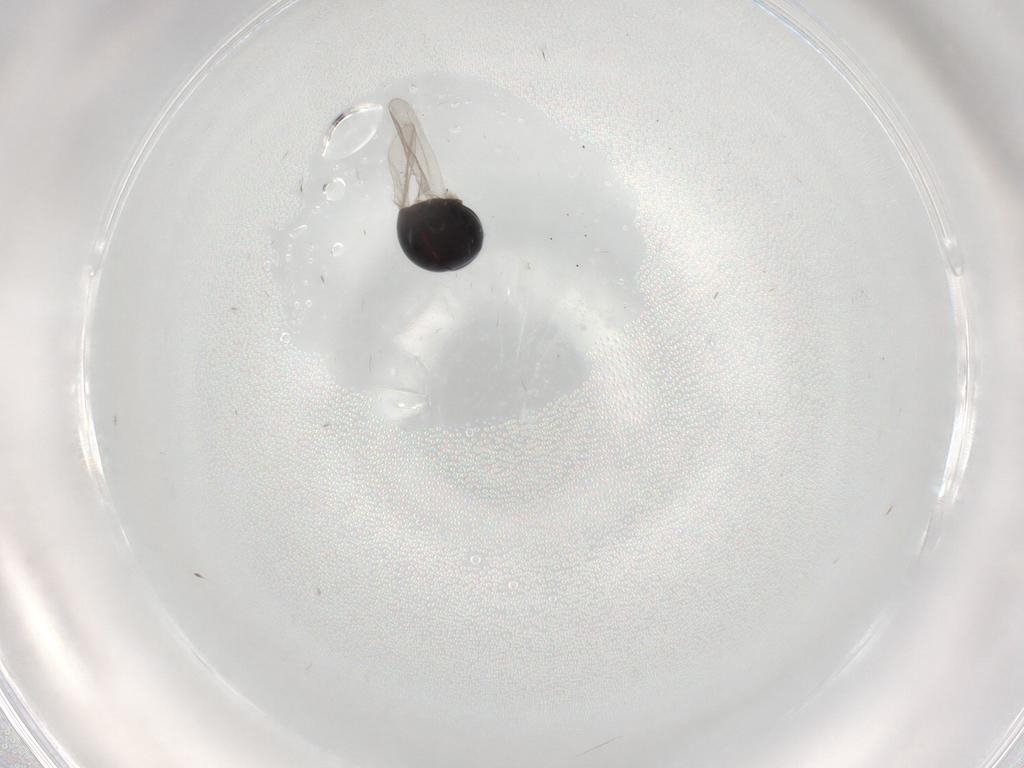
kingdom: Animalia
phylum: Arthropoda
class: Insecta
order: Coleoptera
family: Corylophidae
